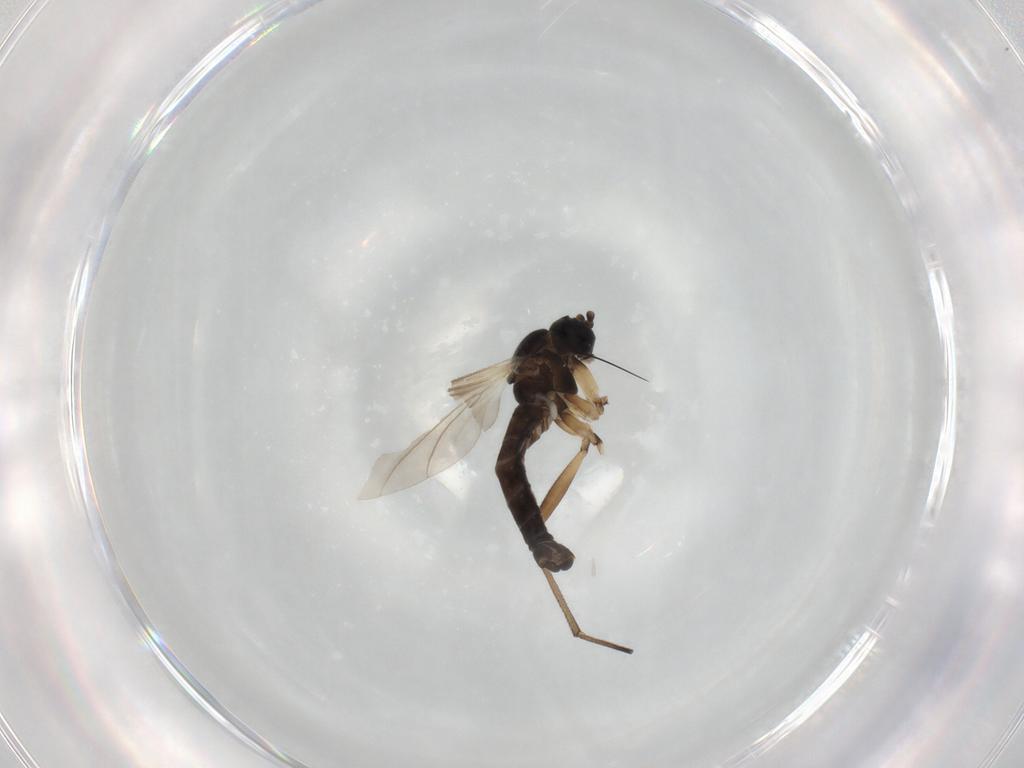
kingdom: Animalia
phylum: Arthropoda
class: Insecta
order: Diptera
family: Sciaridae
